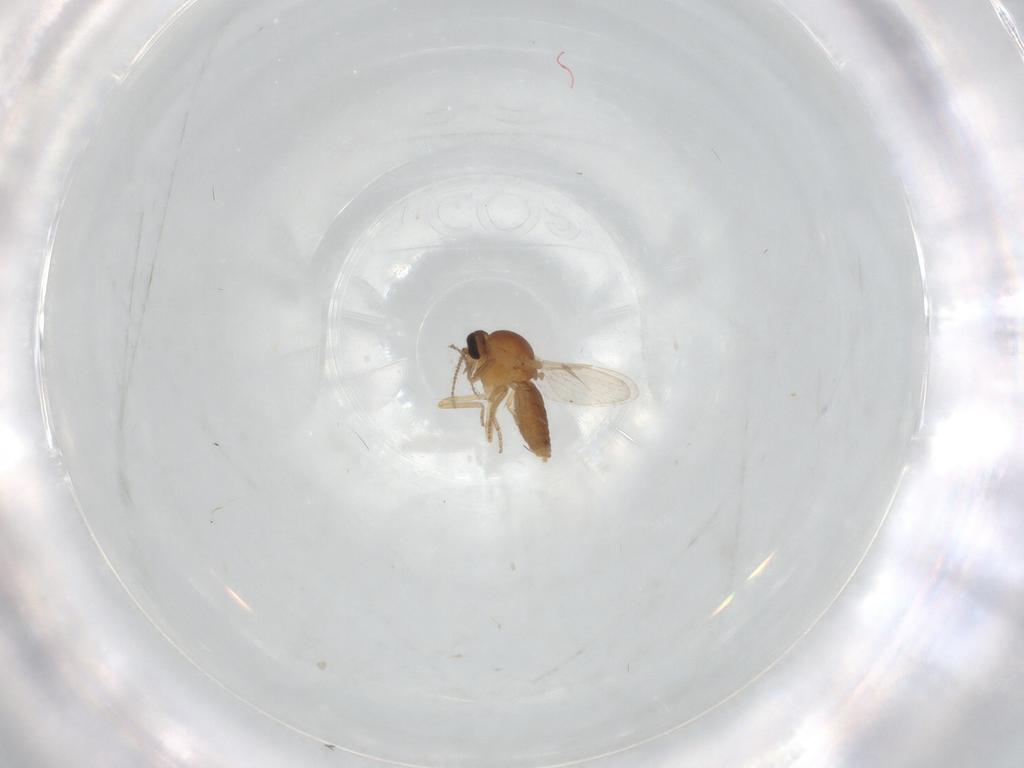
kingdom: Animalia
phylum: Arthropoda
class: Insecta
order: Diptera
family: Ceratopogonidae
